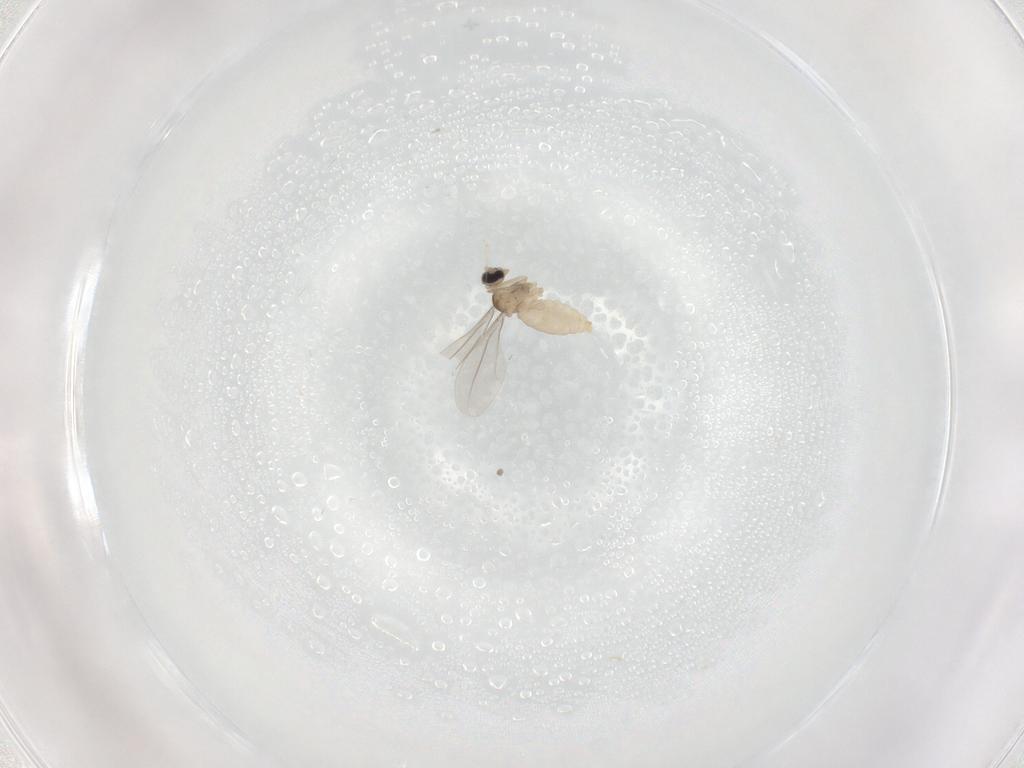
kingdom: Animalia
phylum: Arthropoda
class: Insecta
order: Diptera
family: Cecidomyiidae
